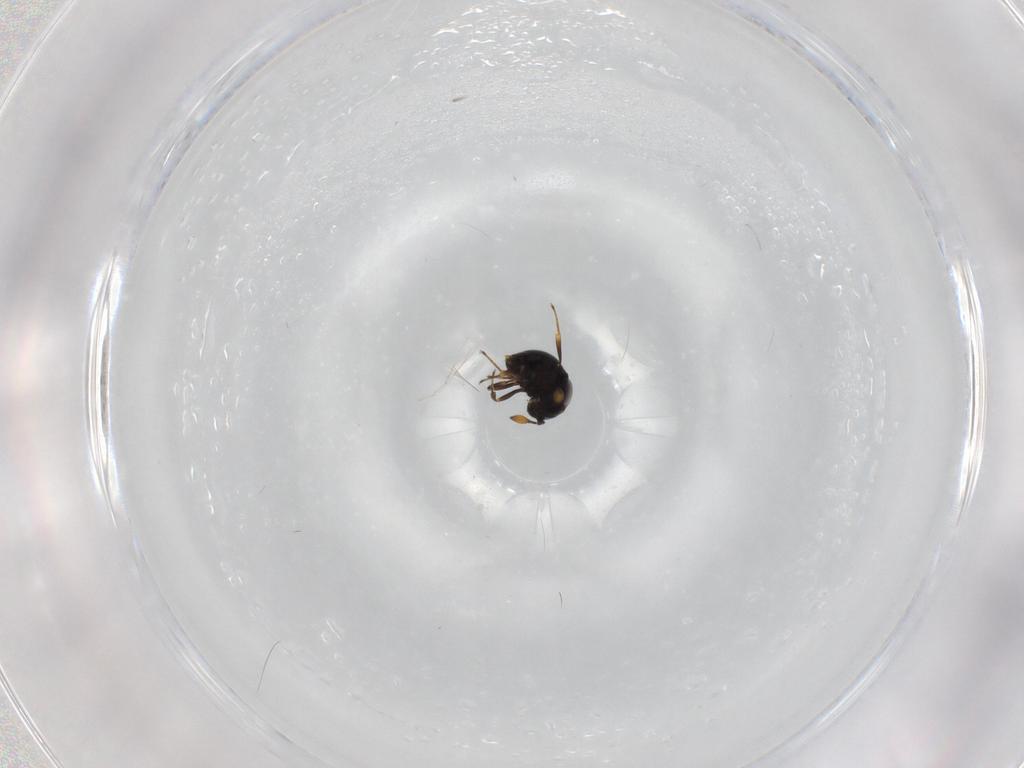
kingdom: Animalia
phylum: Arthropoda
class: Insecta
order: Hymenoptera
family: Scelionidae
